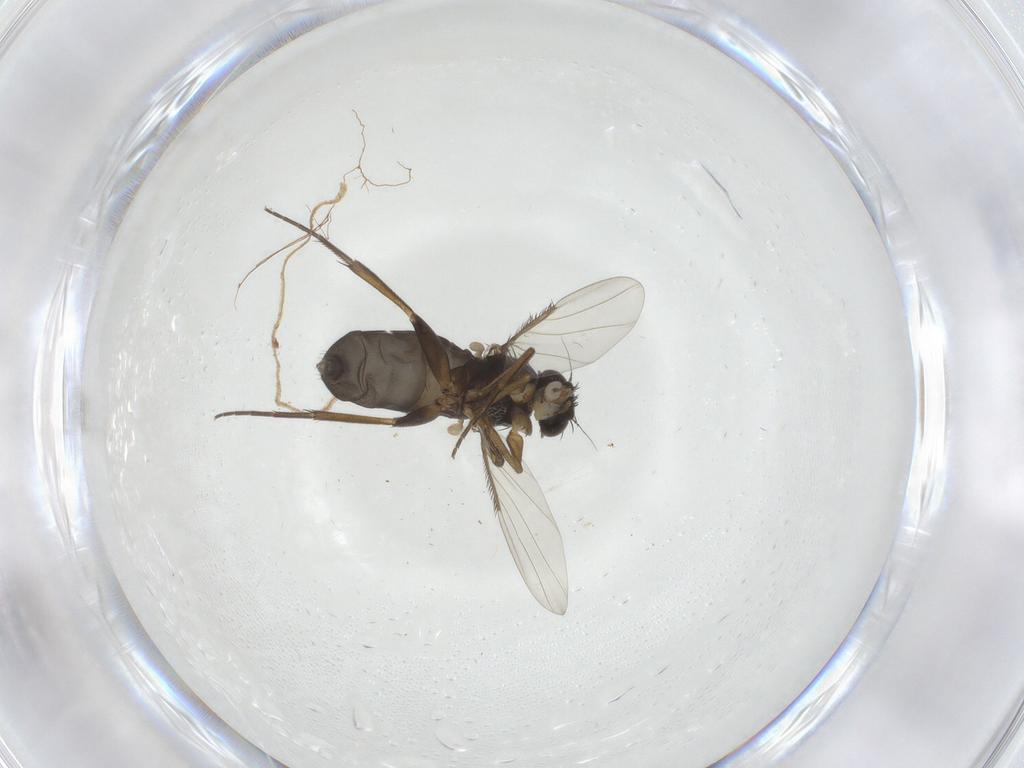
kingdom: Animalia
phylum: Arthropoda
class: Insecta
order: Diptera
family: Phoridae
